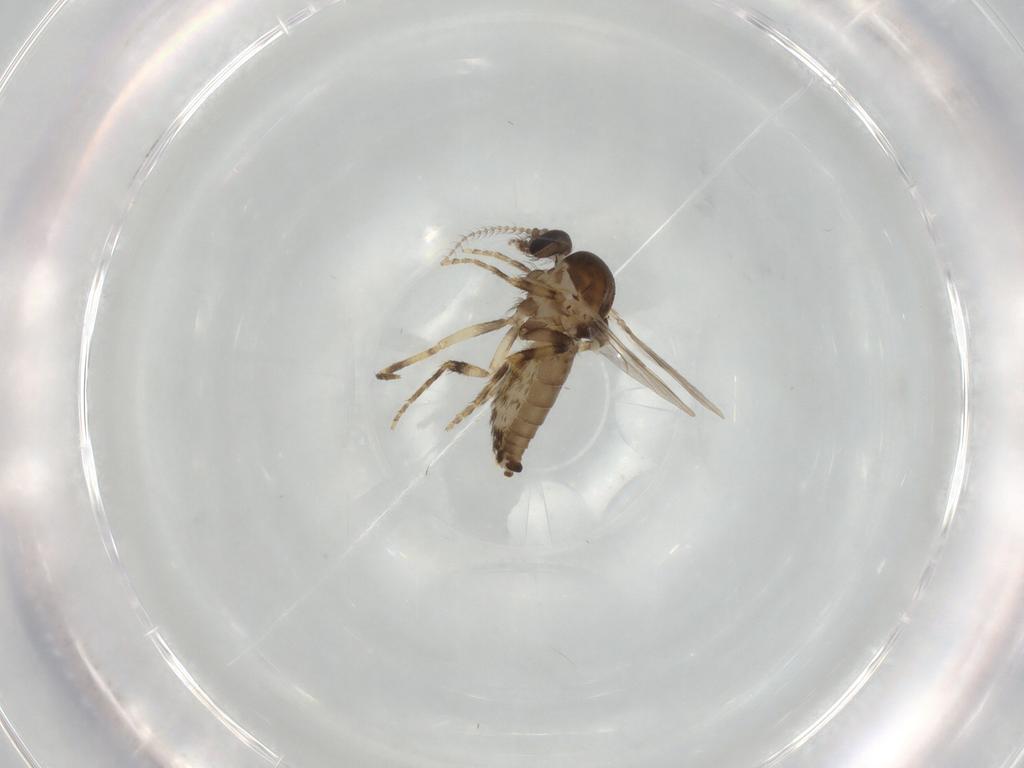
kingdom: Animalia
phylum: Arthropoda
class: Insecta
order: Diptera
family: Ceratopogonidae
